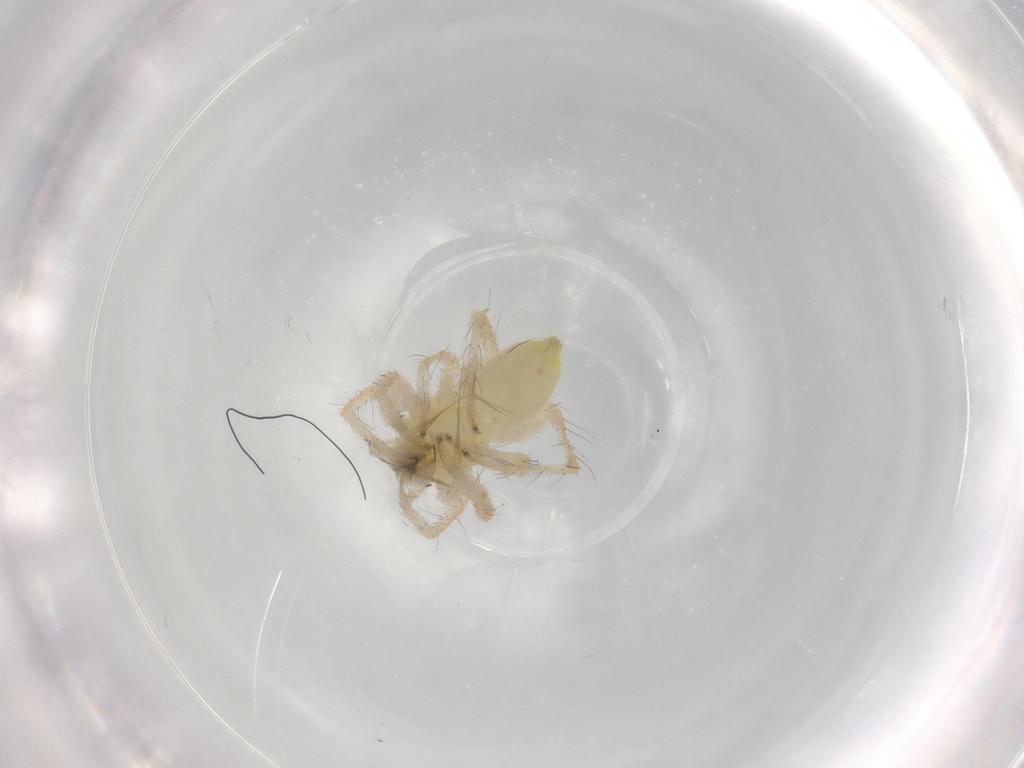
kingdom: Animalia
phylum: Arthropoda
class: Arachnida
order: Araneae
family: Anyphaenidae
